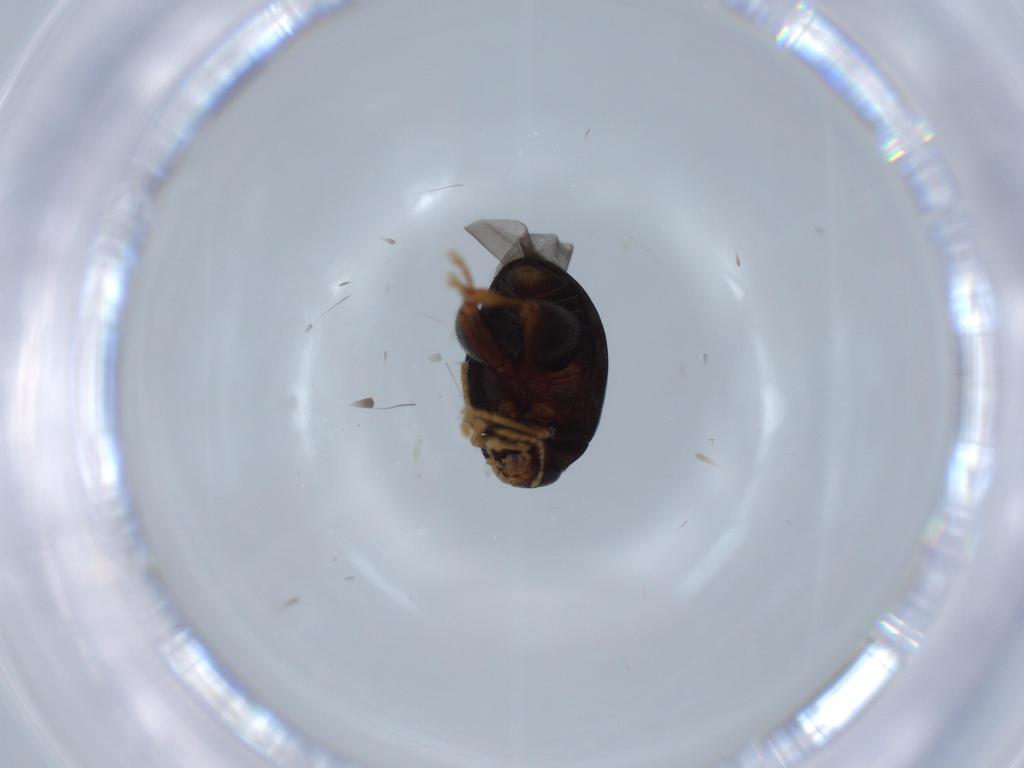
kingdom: Animalia
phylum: Arthropoda
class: Insecta
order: Coleoptera
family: Chrysomelidae
